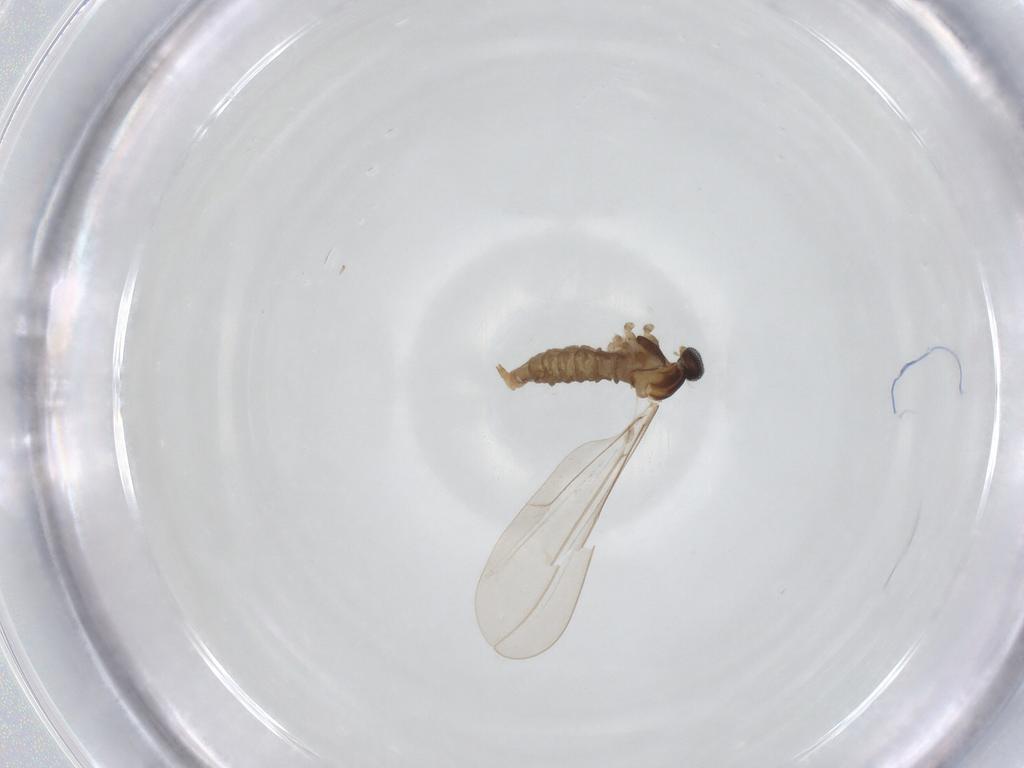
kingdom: Animalia
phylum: Arthropoda
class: Insecta
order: Diptera
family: Cecidomyiidae
